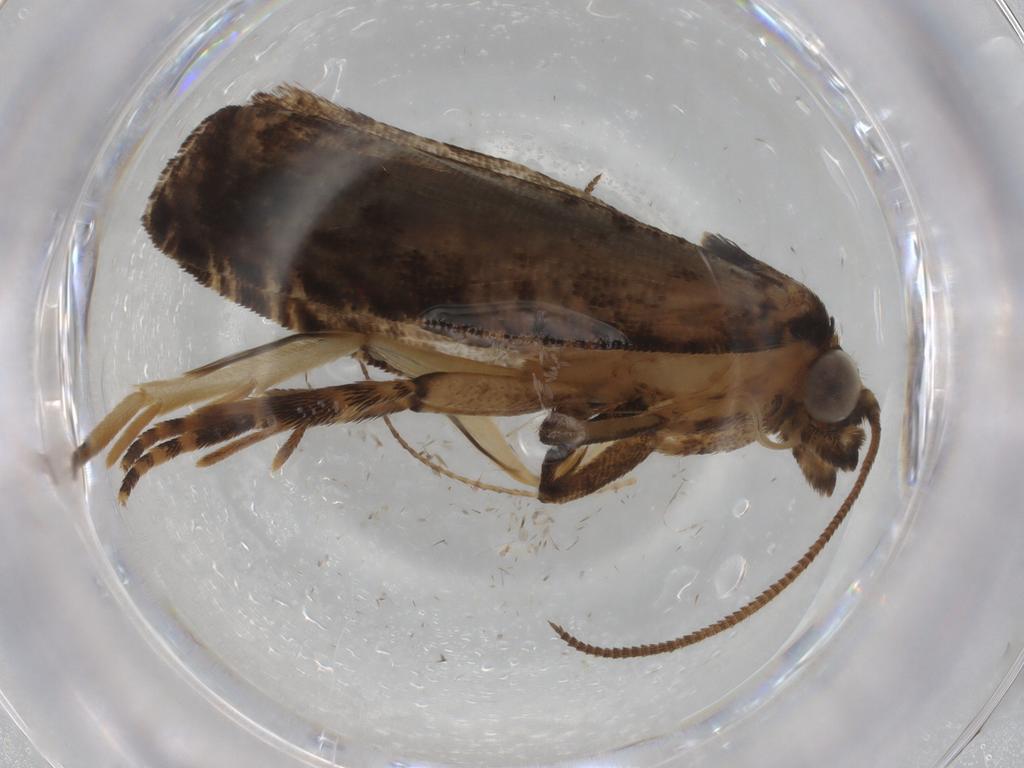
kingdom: Animalia
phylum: Arthropoda
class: Insecta
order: Lepidoptera
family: Tortricidae
